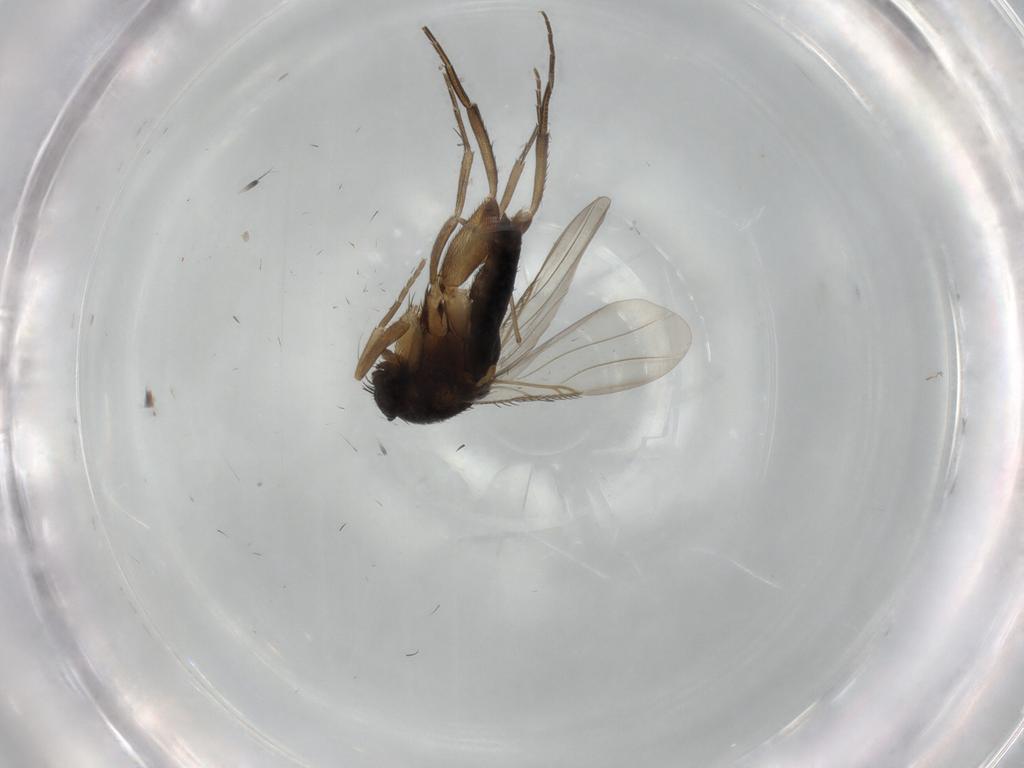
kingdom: Animalia
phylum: Arthropoda
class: Insecta
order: Diptera
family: Phoridae
